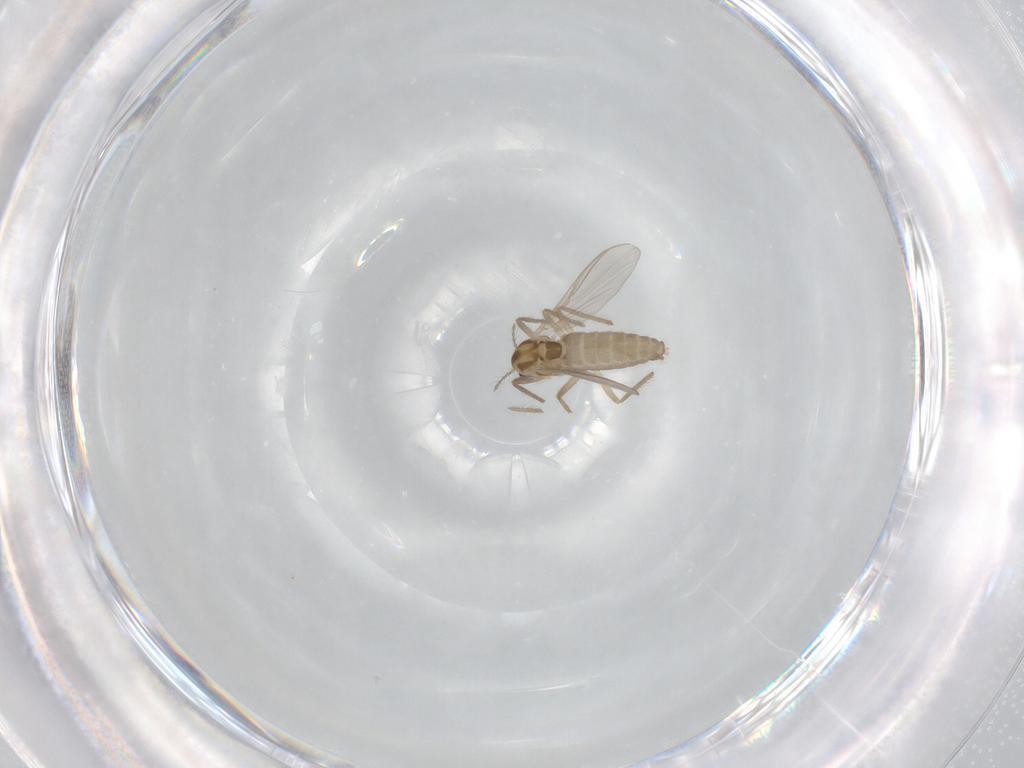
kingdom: Animalia
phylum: Arthropoda
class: Insecta
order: Diptera
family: Chironomidae
